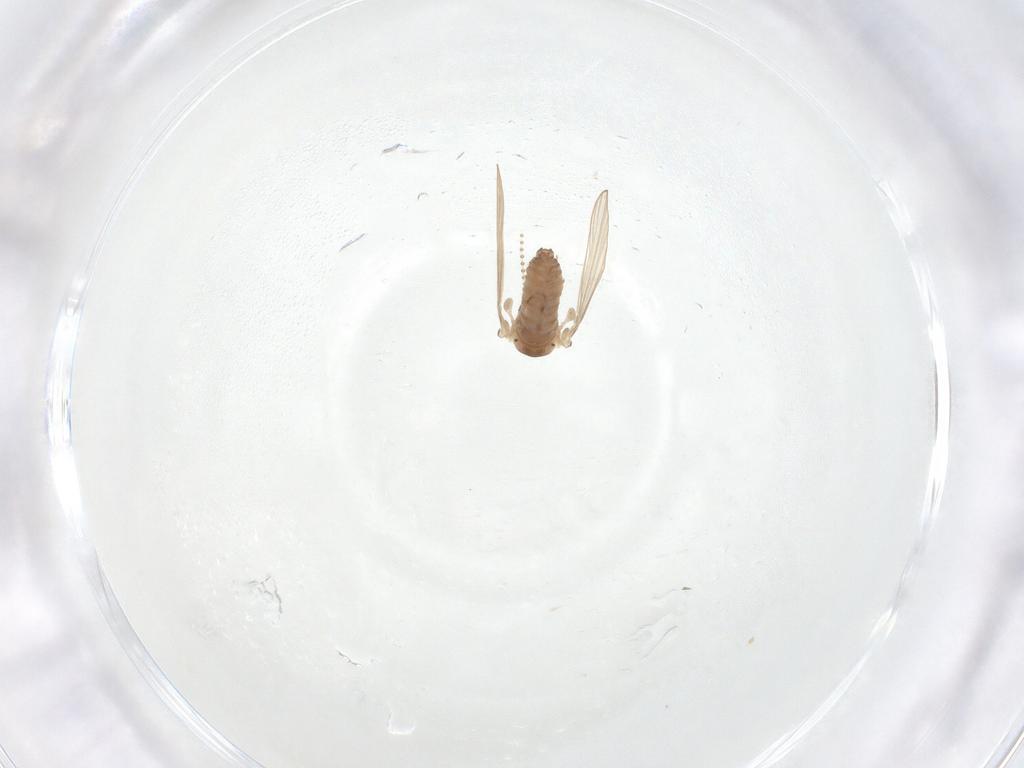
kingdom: Animalia
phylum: Arthropoda
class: Insecta
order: Diptera
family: Psychodidae
